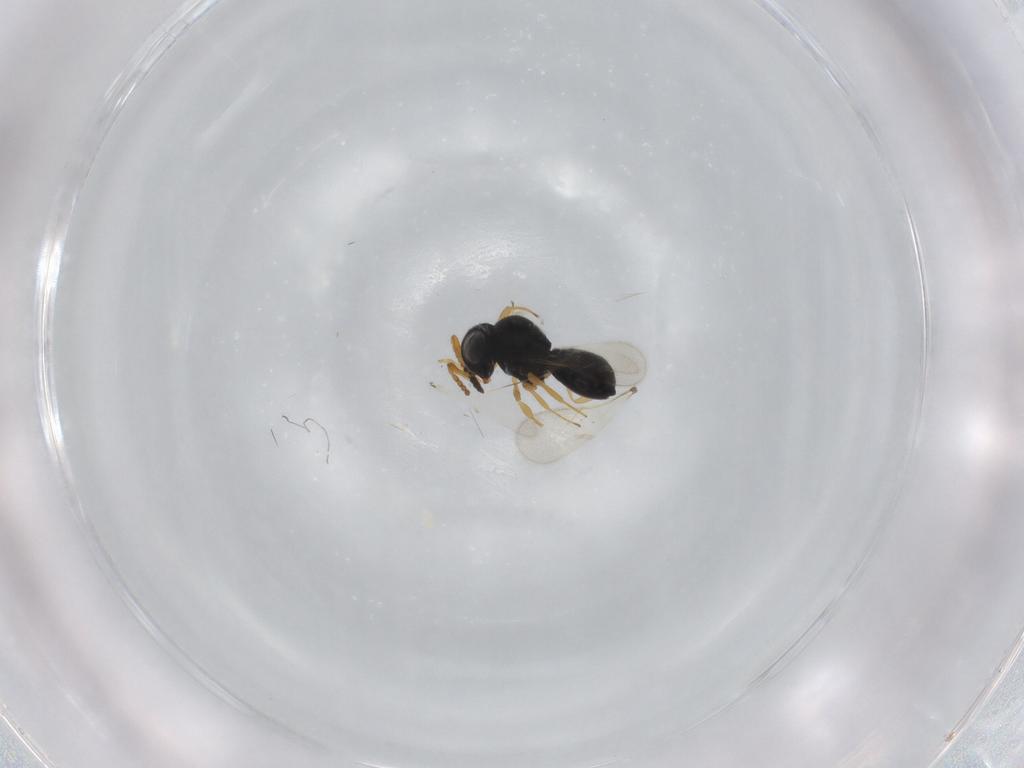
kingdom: Animalia
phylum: Arthropoda
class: Insecta
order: Hymenoptera
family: Scelionidae
